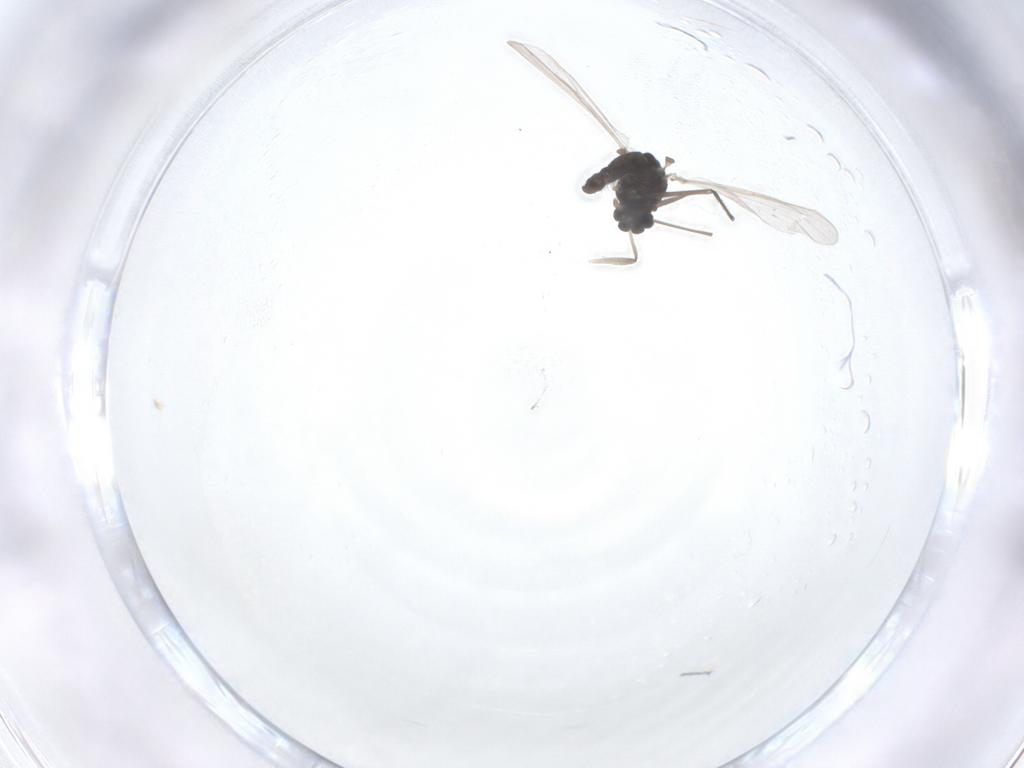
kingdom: Animalia
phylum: Arthropoda
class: Insecta
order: Diptera
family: Chironomidae
